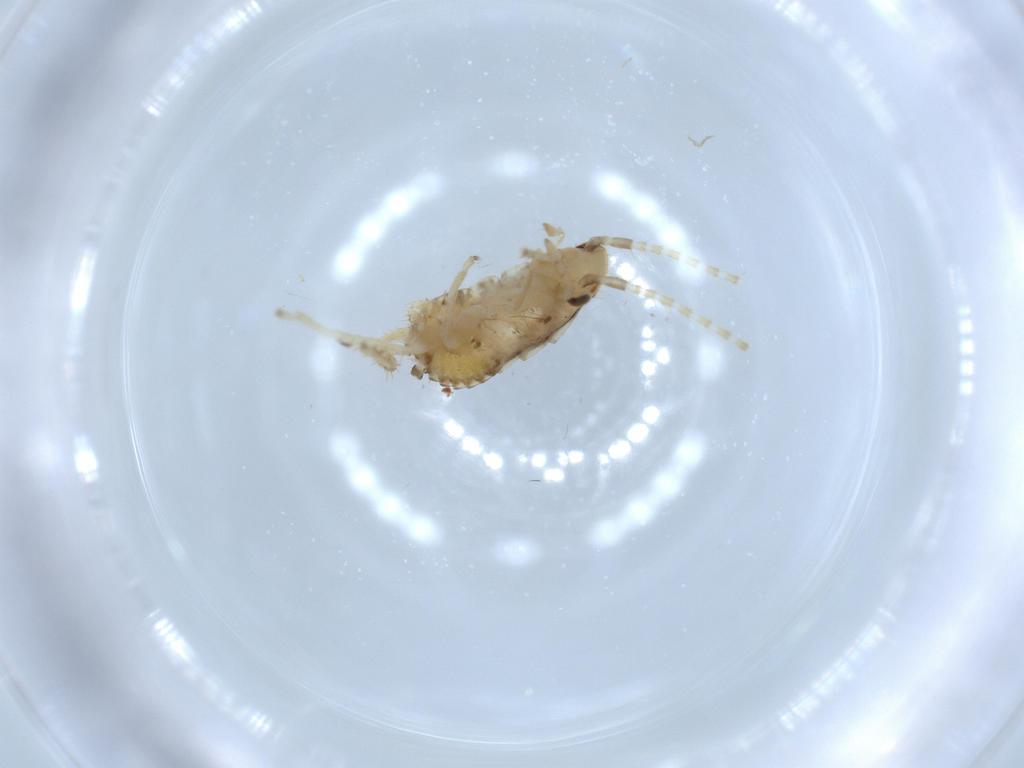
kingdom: Animalia
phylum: Arthropoda
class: Insecta
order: Blattodea
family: Ectobiidae
